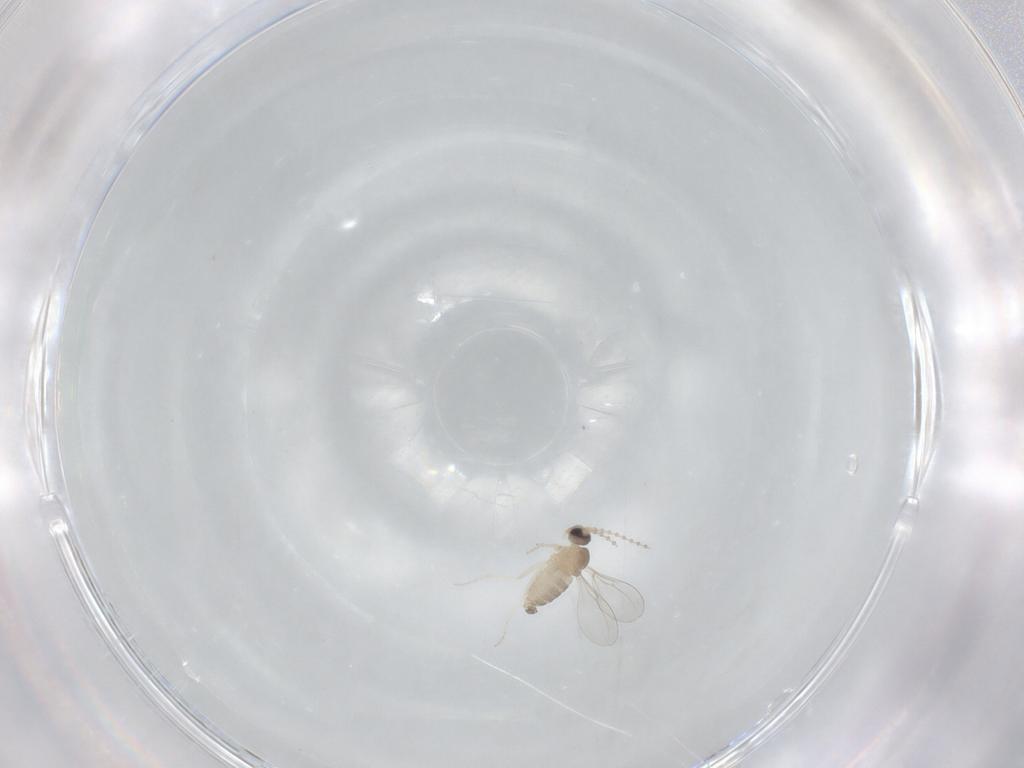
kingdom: Animalia
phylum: Arthropoda
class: Insecta
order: Diptera
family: Cecidomyiidae
